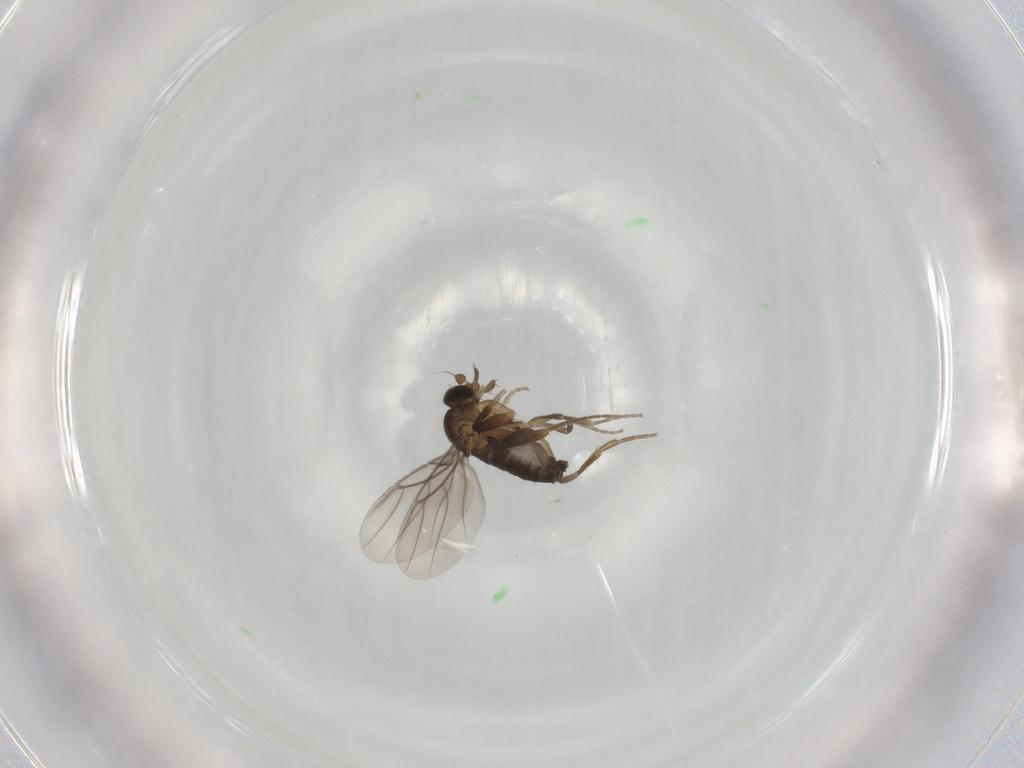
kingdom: Animalia
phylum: Arthropoda
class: Insecta
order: Diptera
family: Phoridae
